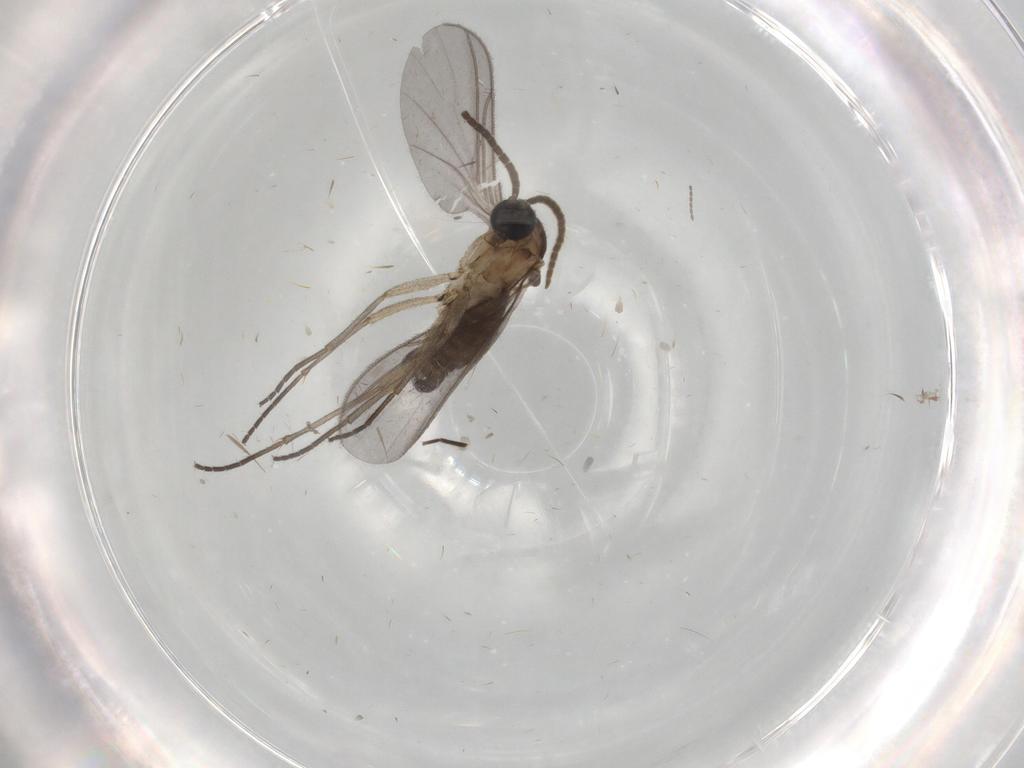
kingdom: Animalia
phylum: Arthropoda
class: Insecta
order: Diptera
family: Cecidomyiidae
